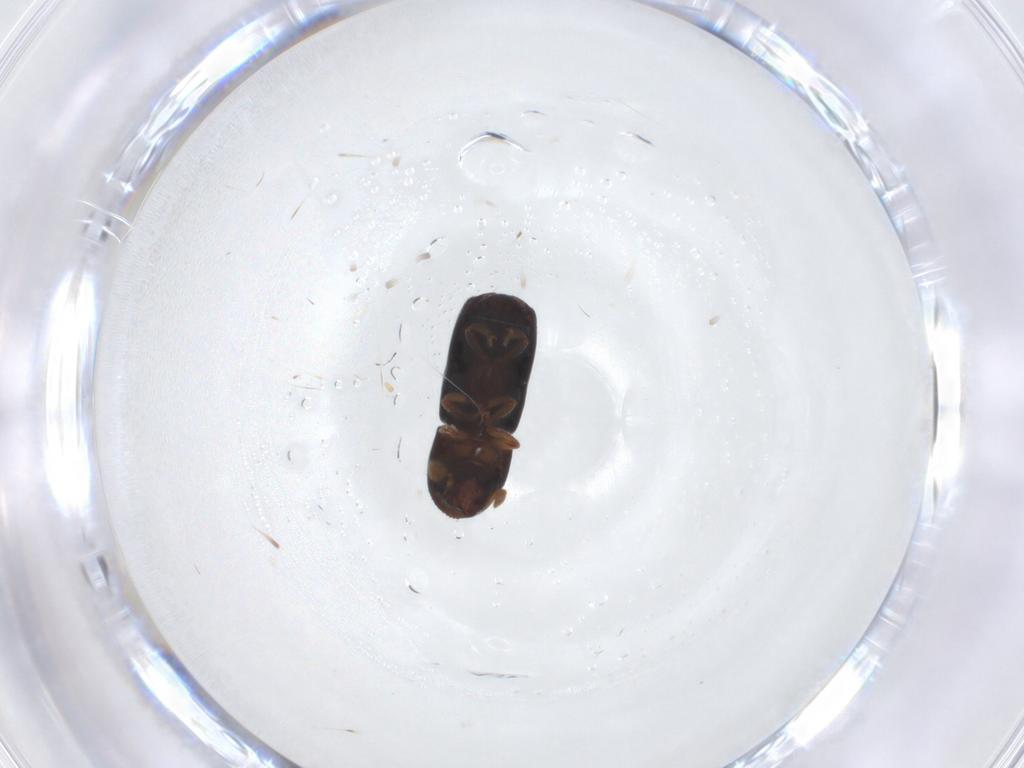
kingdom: Animalia
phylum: Arthropoda
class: Insecta
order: Coleoptera
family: Curculionidae
